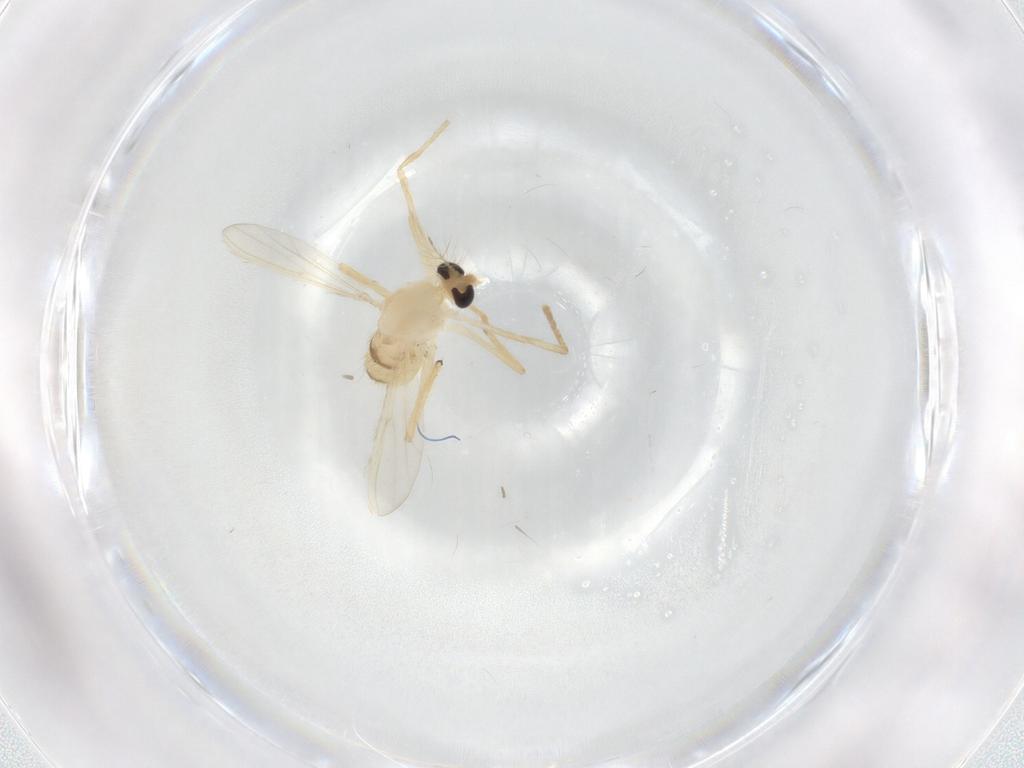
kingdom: Animalia
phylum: Arthropoda
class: Insecta
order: Diptera
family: Chironomidae
